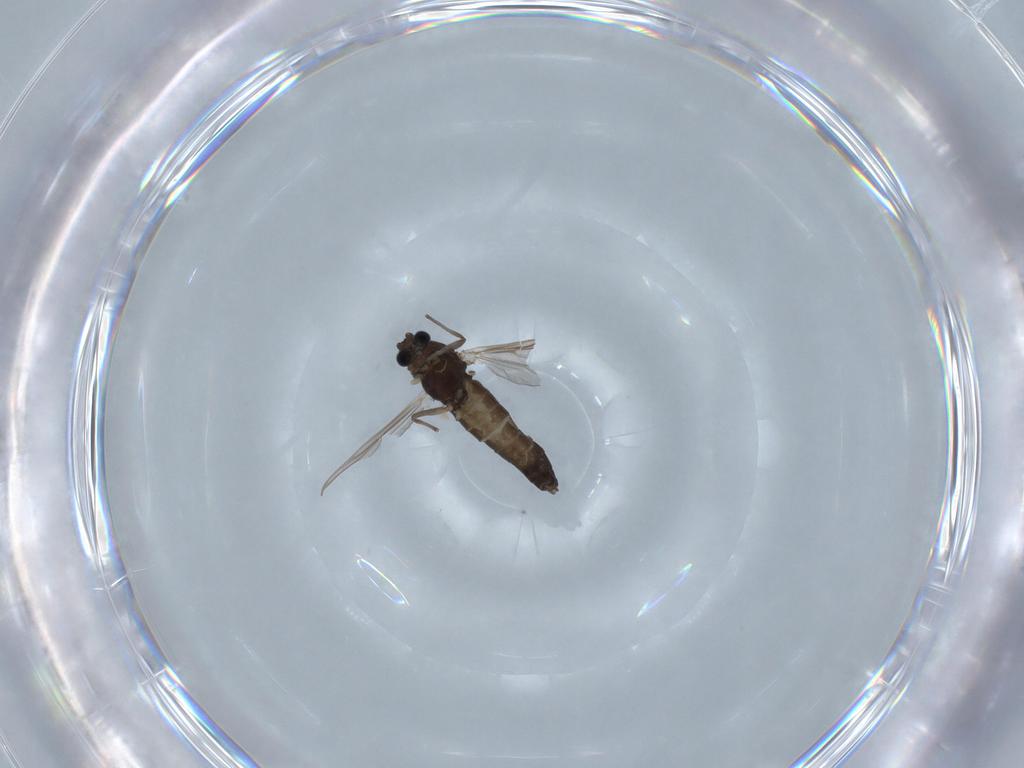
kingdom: Animalia
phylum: Arthropoda
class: Insecta
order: Diptera
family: Chironomidae
